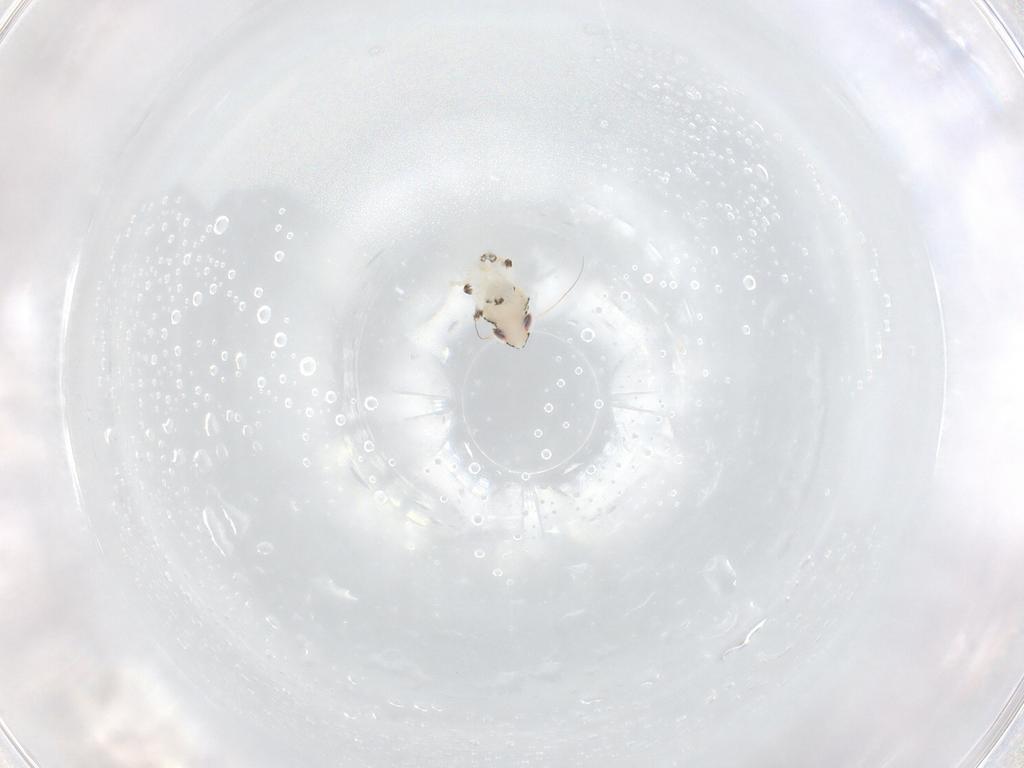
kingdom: Animalia
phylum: Arthropoda
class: Insecta
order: Hemiptera
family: Cicadellidae
